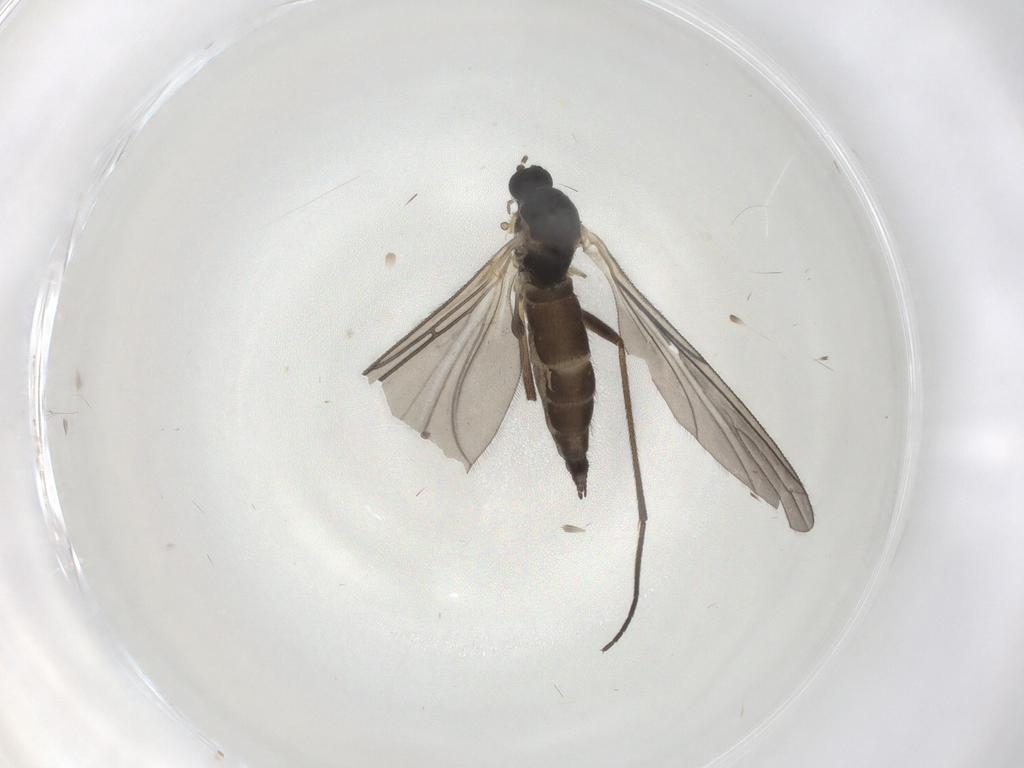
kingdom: Animalia
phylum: Arthropoda
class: Insecta
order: Diptera
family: Sciaridae
